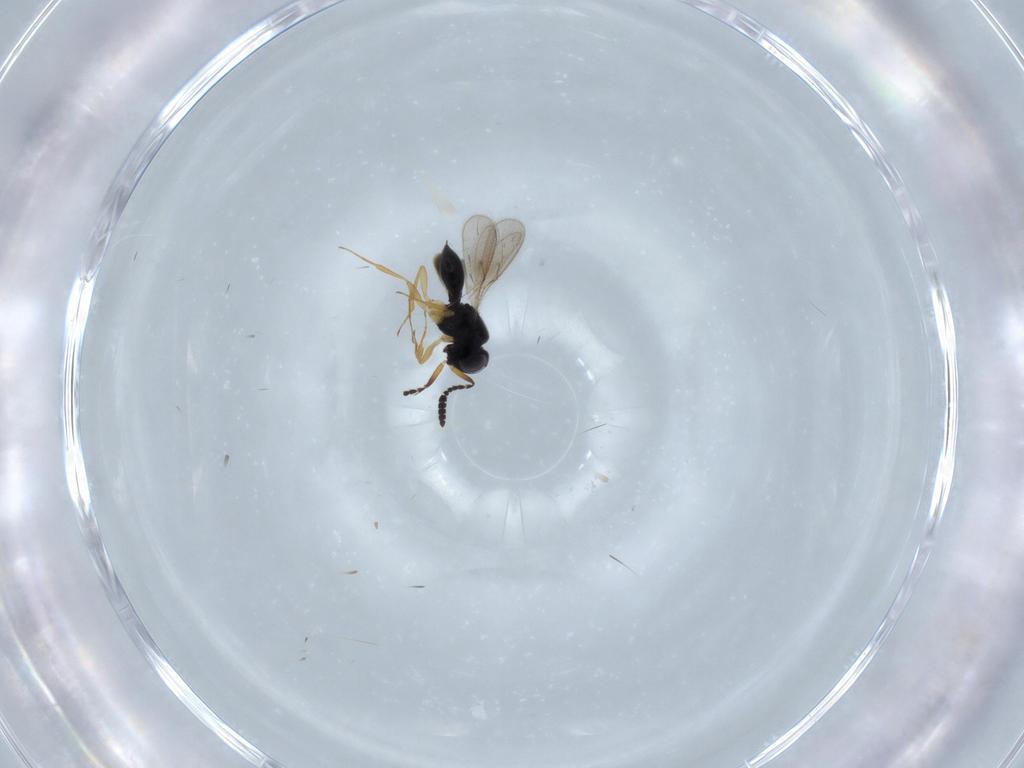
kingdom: Animalia
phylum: Arthropoda
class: Insecta
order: Hymenoptera
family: Scelionidae
